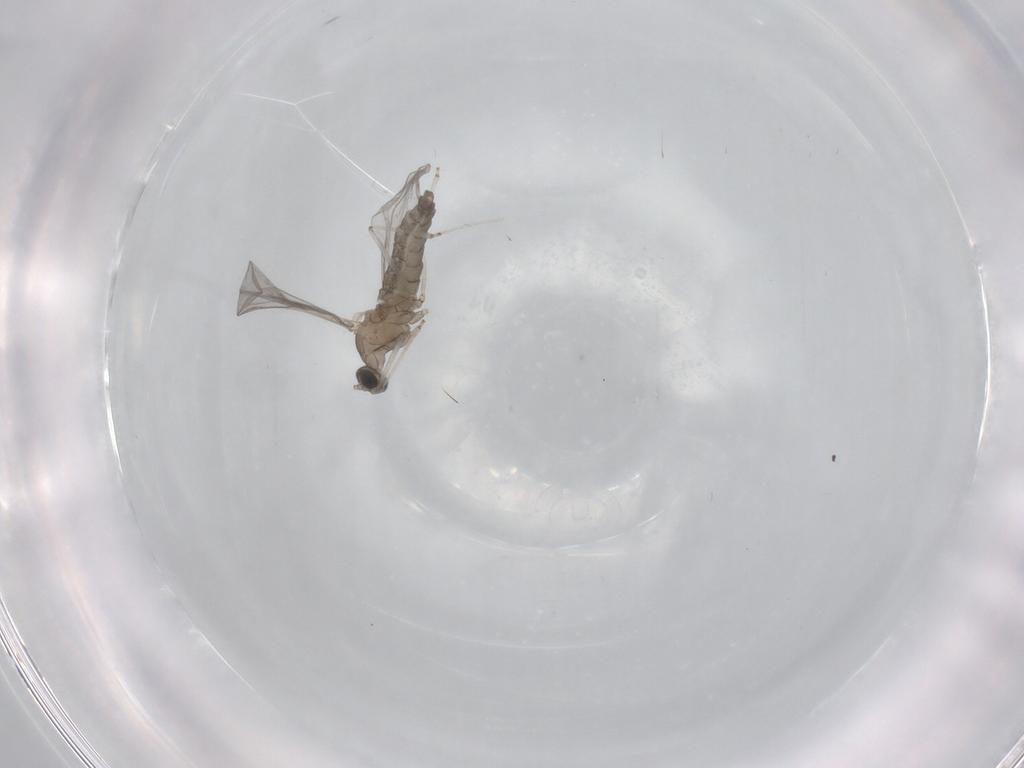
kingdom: Animalia
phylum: Arthropoda
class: Insecta
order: Diptera
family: Cecidomyiidae
